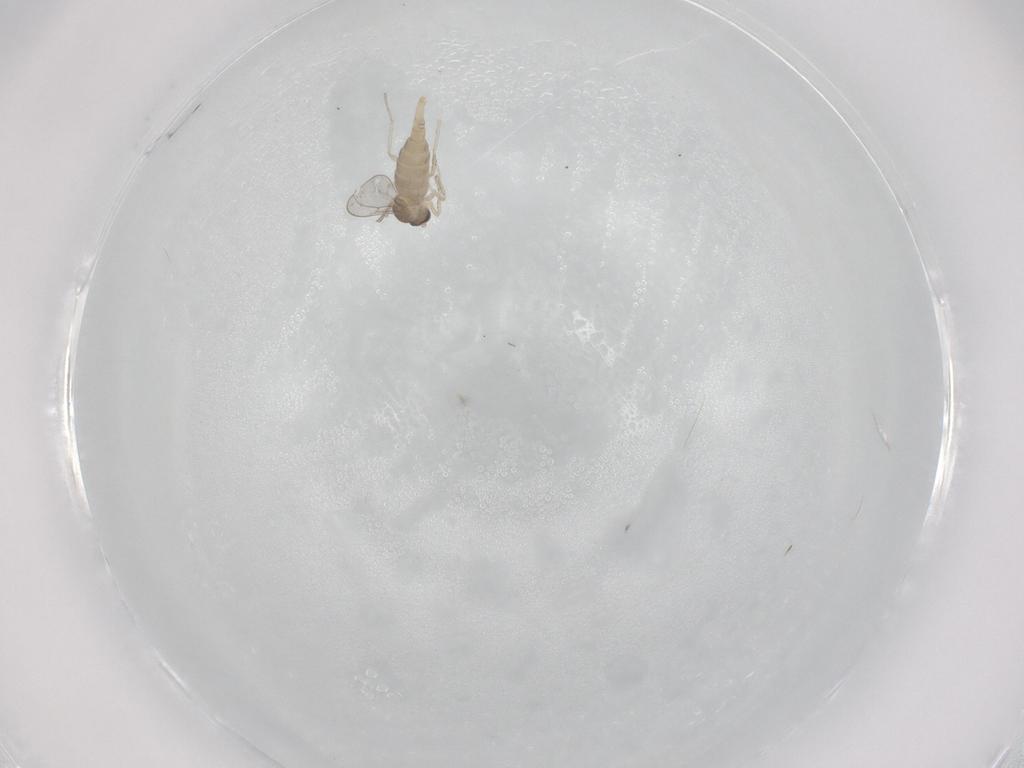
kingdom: Animalia
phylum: Arthropoda
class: Insecta
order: Diptera
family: Cecidomyiidae
